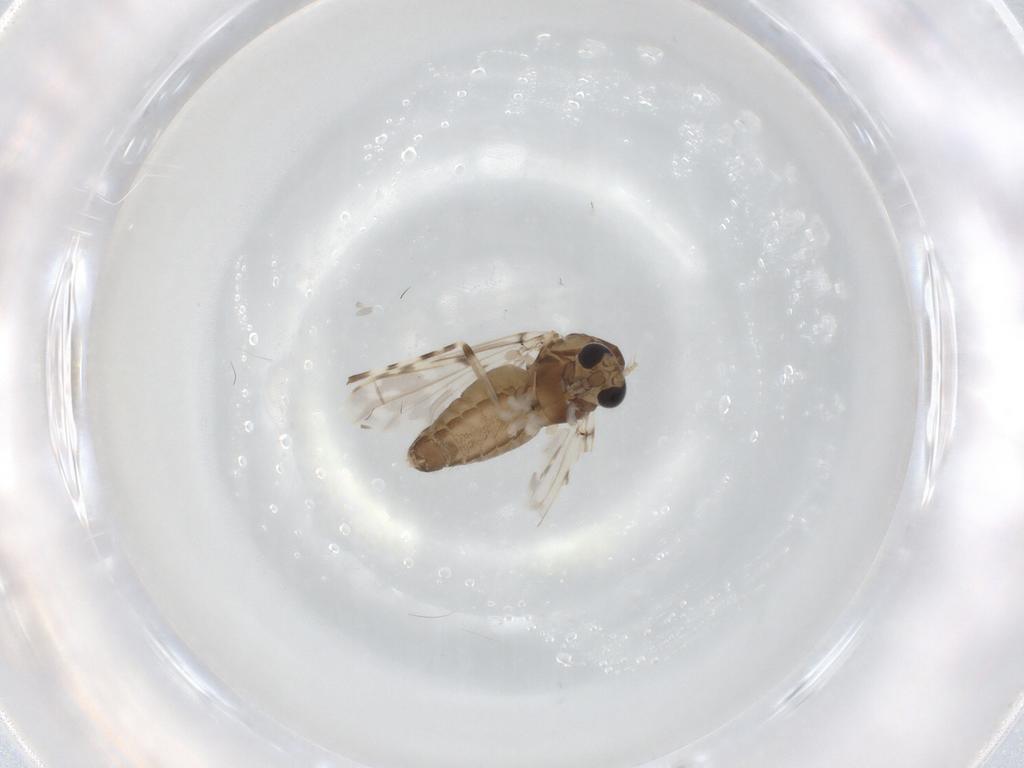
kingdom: Animalia
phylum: Arthropoda
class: Insecta
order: Diptera
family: Chironomidae
